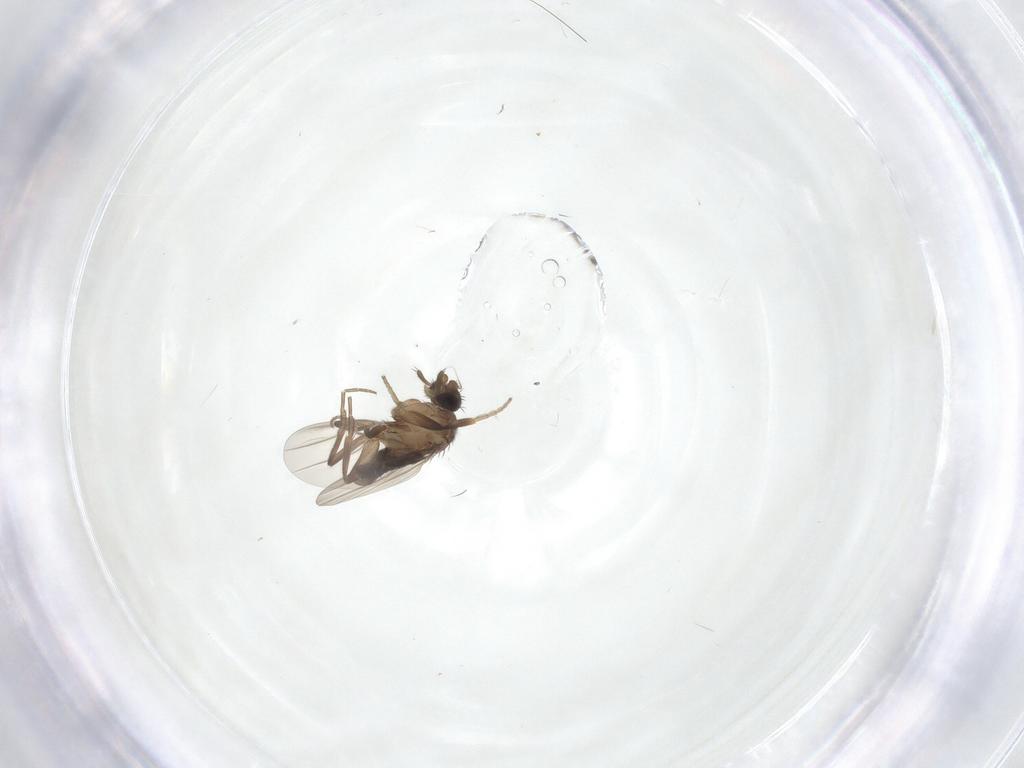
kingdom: Animalia
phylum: Arthropoda
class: Insecta
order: Diptera
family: Phoridae
